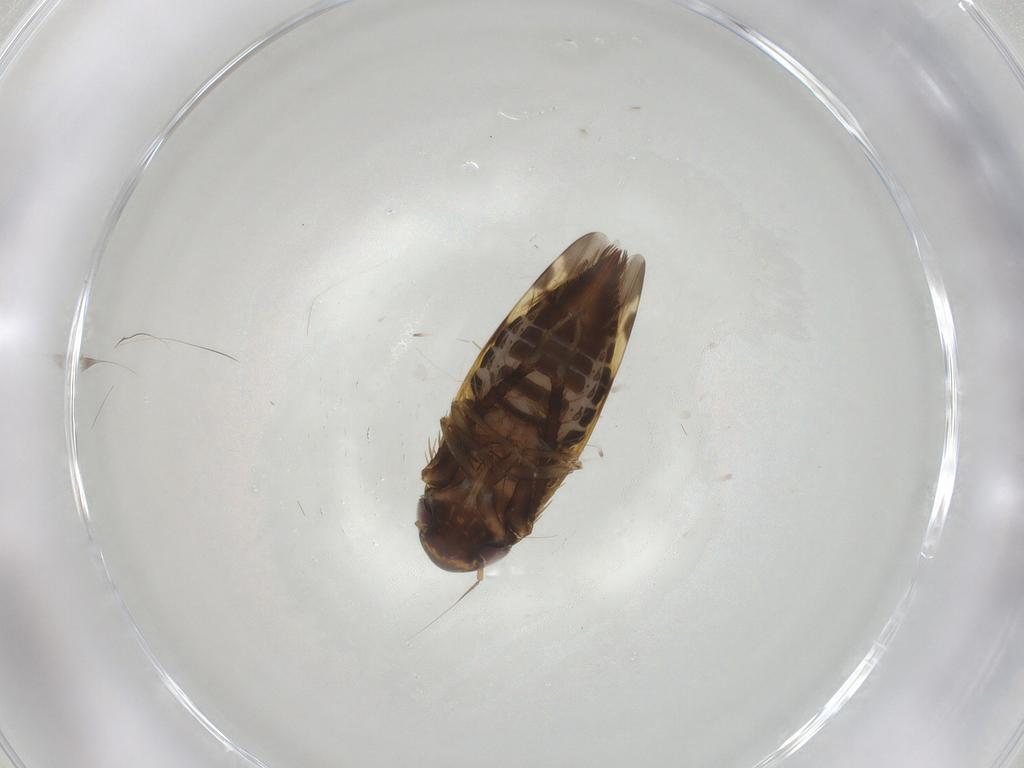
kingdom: Animalia
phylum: Arthropoda
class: Insecta
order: Hemiptera
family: Cicadellidae
